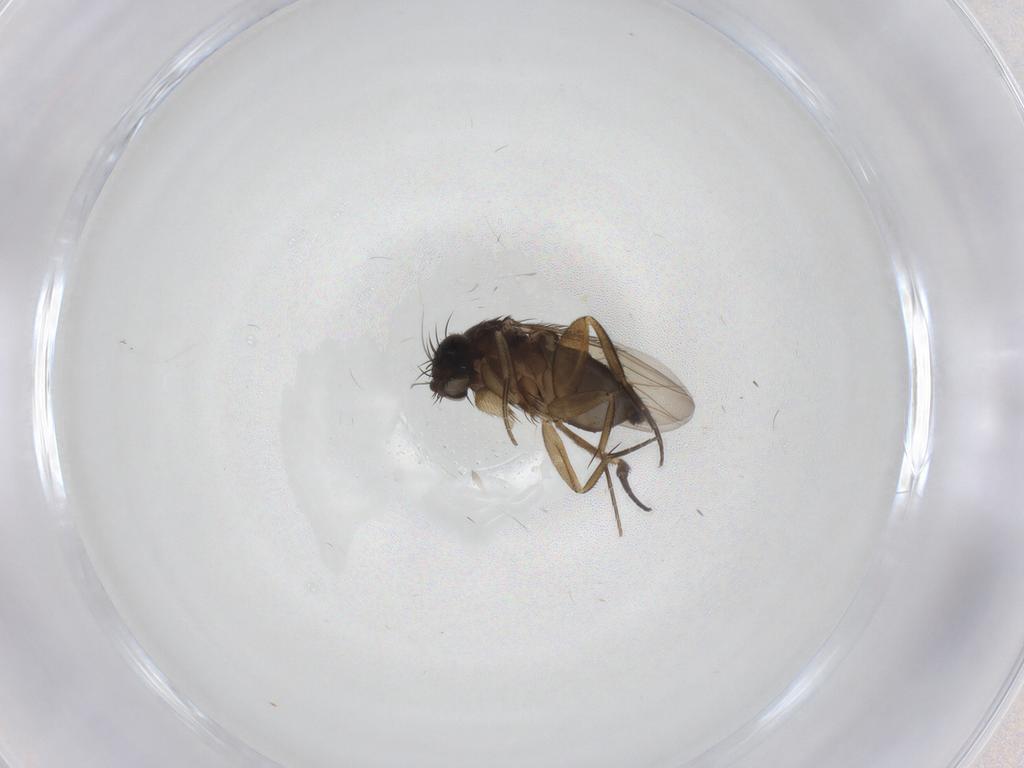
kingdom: Animalia
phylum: Arthropoda
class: Insecta
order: Diptera
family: Phoridae
